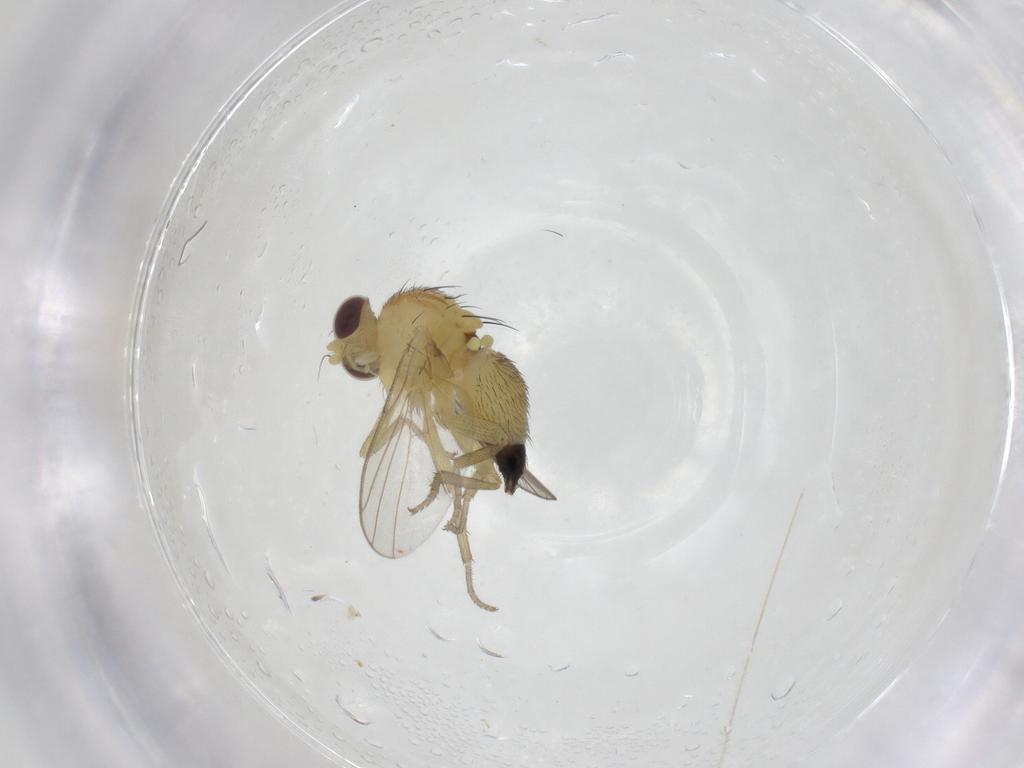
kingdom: Animalia
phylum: Arthropoda
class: Insecta
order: Diptera
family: Agromyzidae
